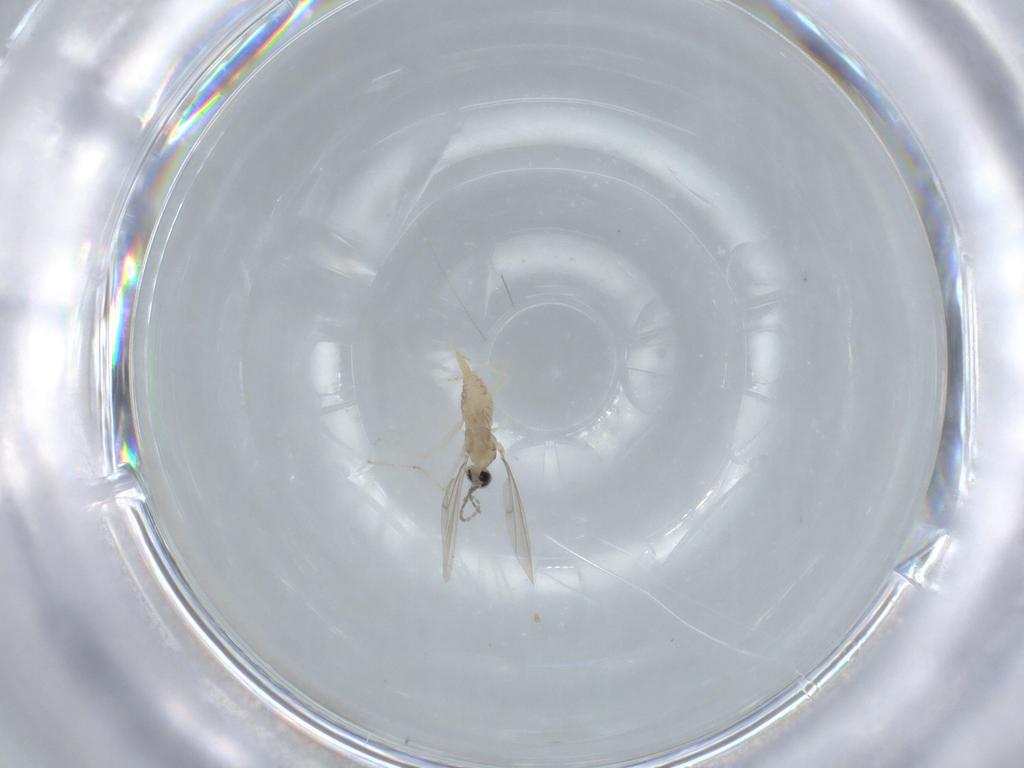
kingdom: Animalia
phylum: Arthropoda
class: Insecta
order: Diptera
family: Cecidomyiidae
